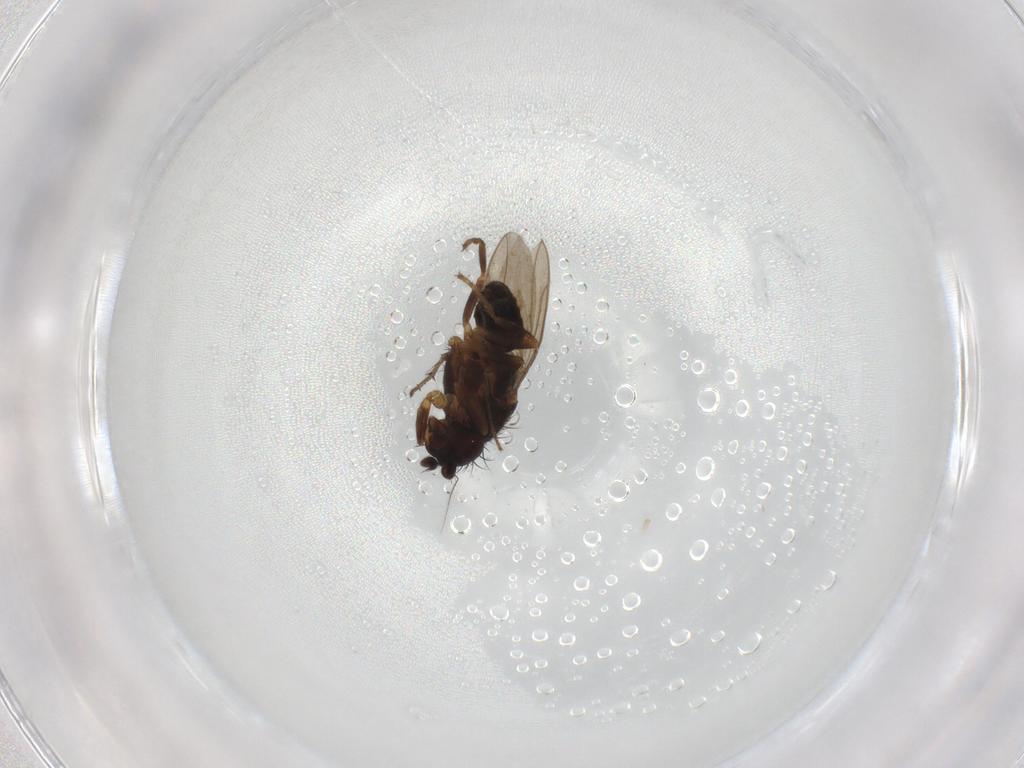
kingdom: Animalia
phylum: Arthropoda
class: Insecta
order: Diptera
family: Sphaeroceridae
